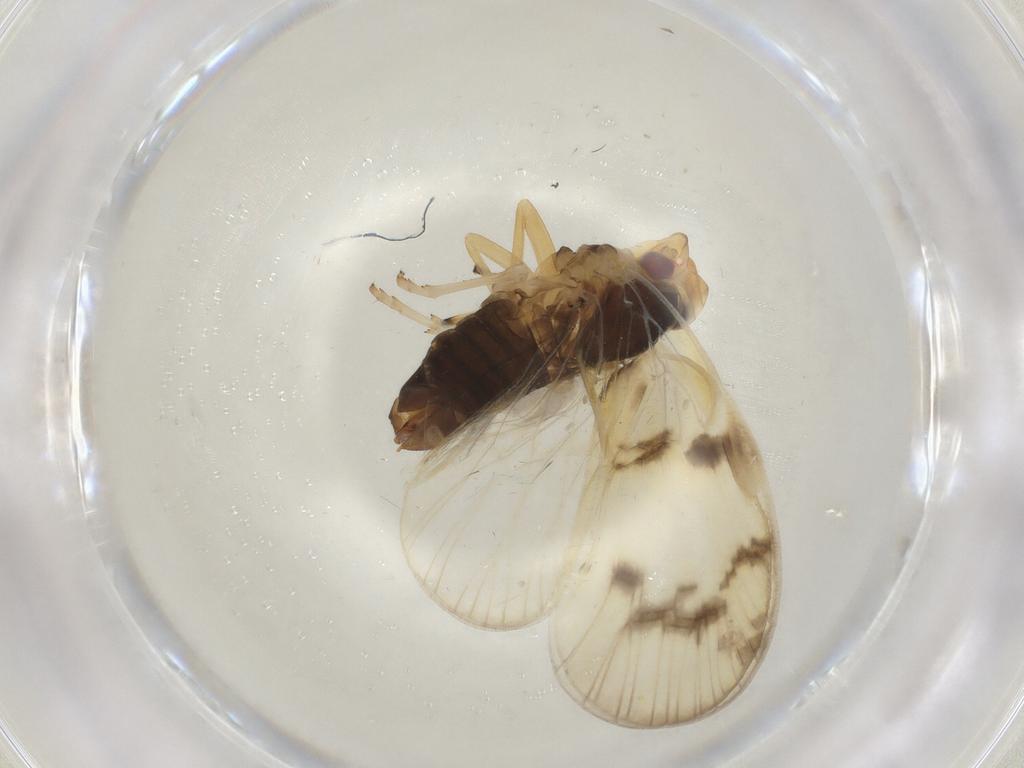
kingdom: Animalia
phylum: Arthropoda
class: Insecta
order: Hemiptera
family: Cixiidae
